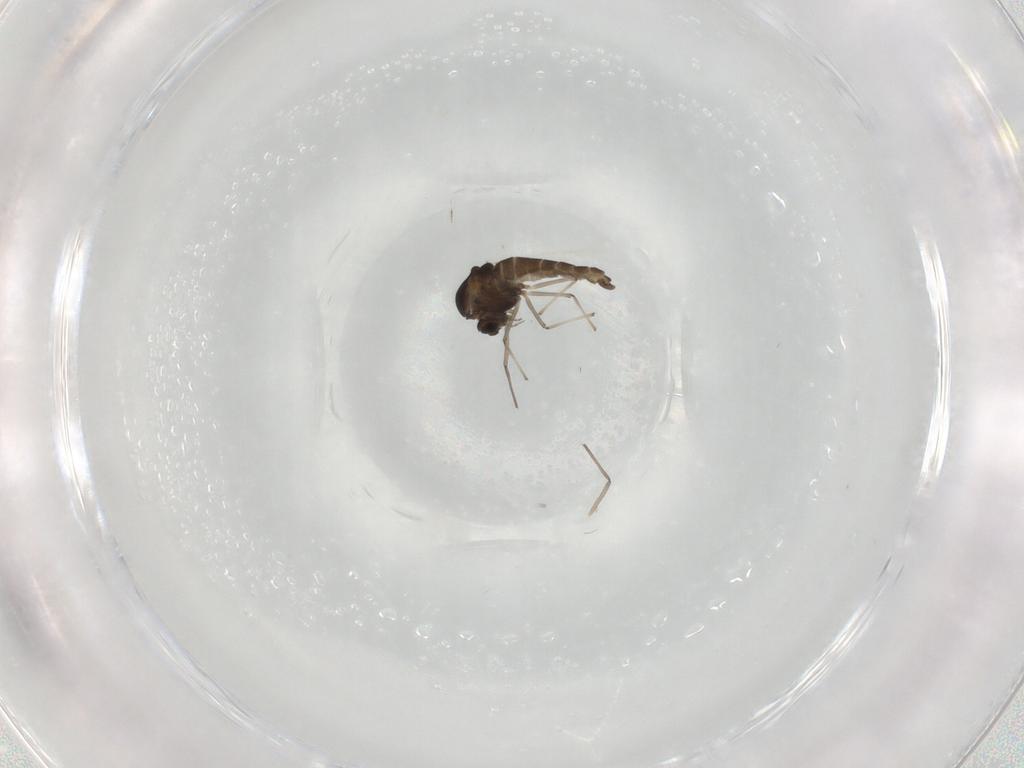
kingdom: Animalia
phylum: Arthropoda
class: Insecta
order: Diptera
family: Chironomidae
